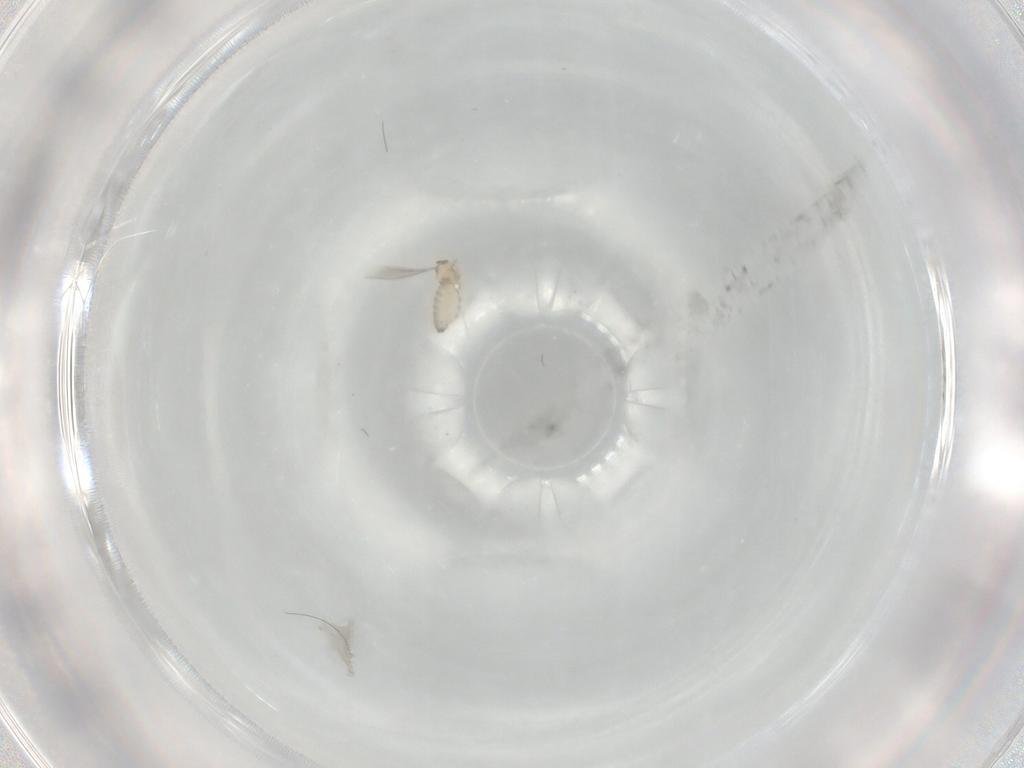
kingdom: Animalia
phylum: Arthropoda
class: Insecta
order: Diptera
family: Cecidomyiidae
